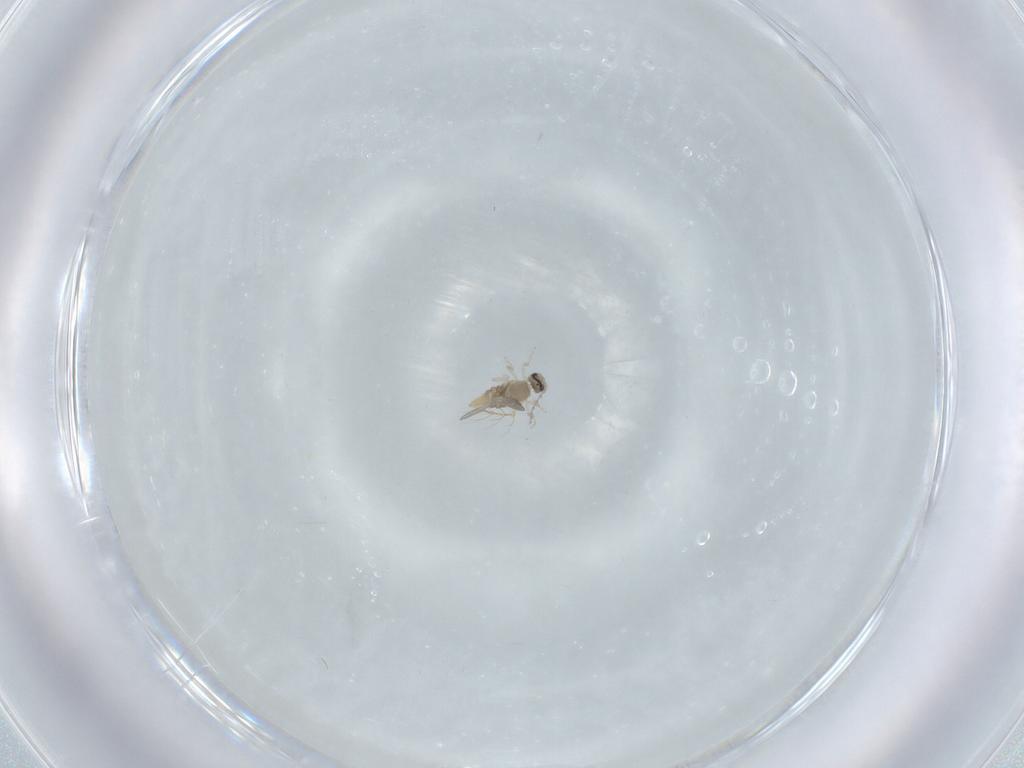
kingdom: Animalia
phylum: Arthropoda
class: Insecta
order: Diptera
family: Cecidomyiidae
